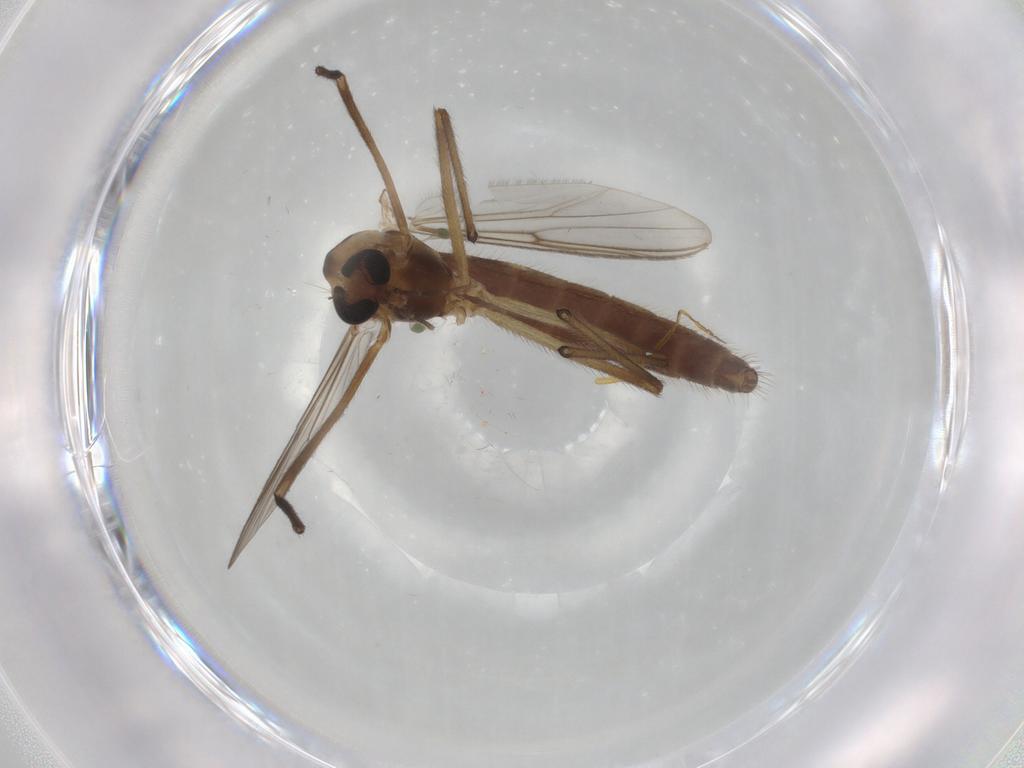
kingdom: Animalia
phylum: Arthropoda
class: Insecta
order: Diptera
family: Chironomidae
